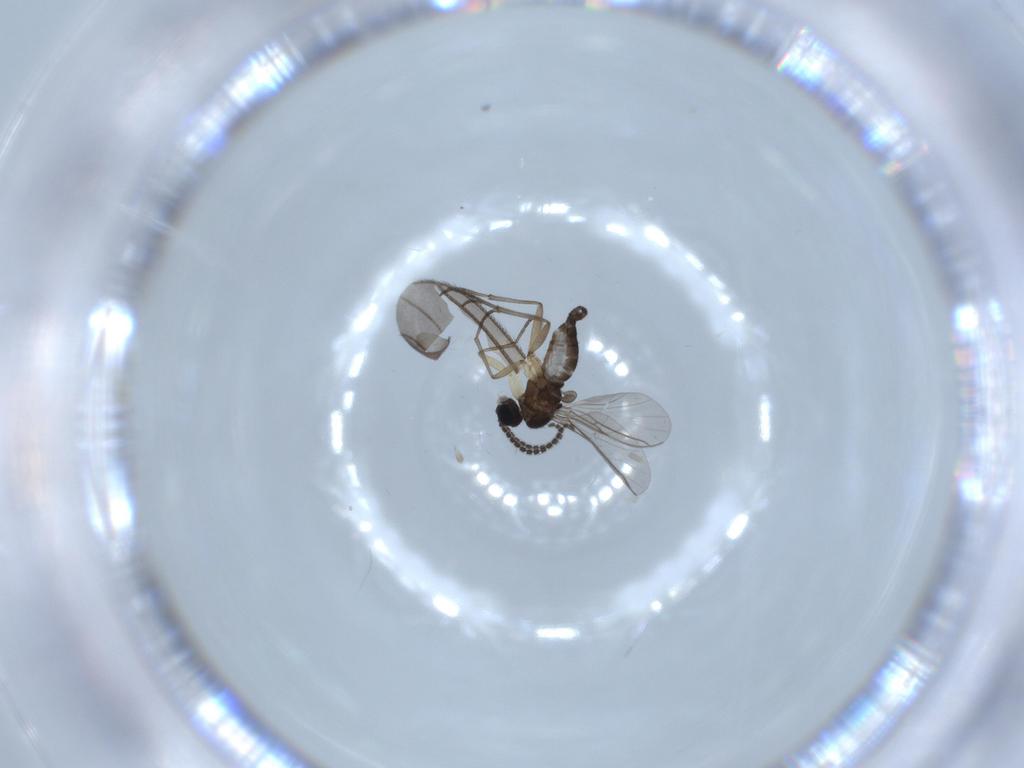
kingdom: Animalia
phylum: Arthropoda
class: Insecta
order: Diptera
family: Sciaridae
